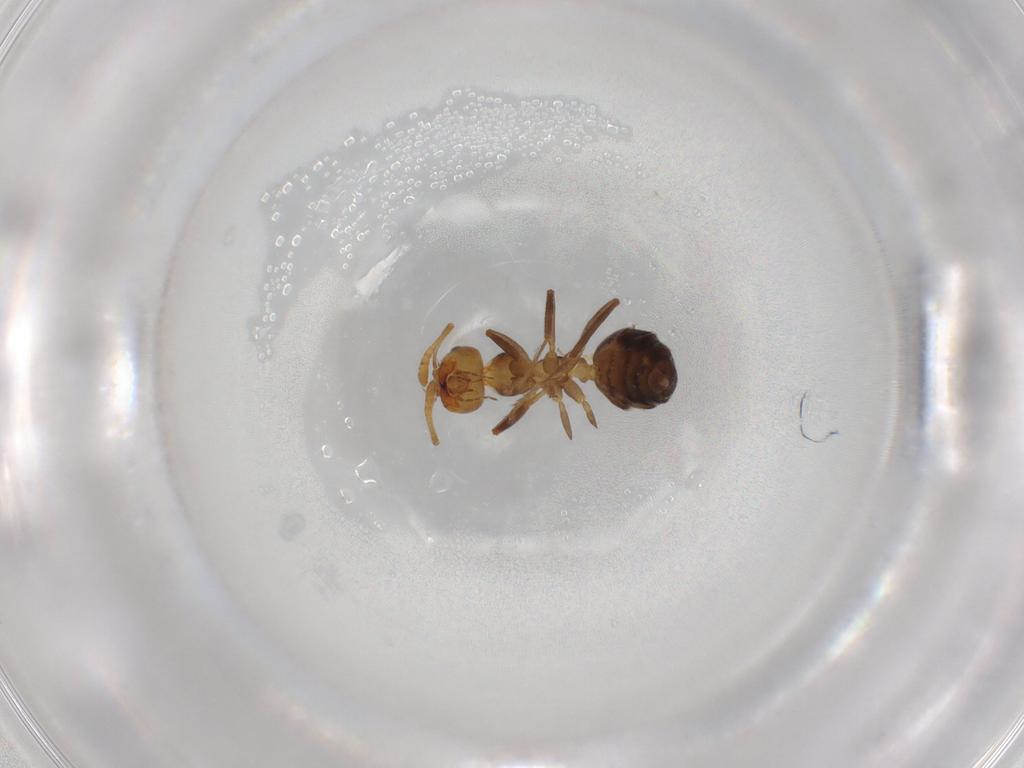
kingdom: Animalia
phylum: Arthropoda
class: Insecta
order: Hymenoptera
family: Formicidae
